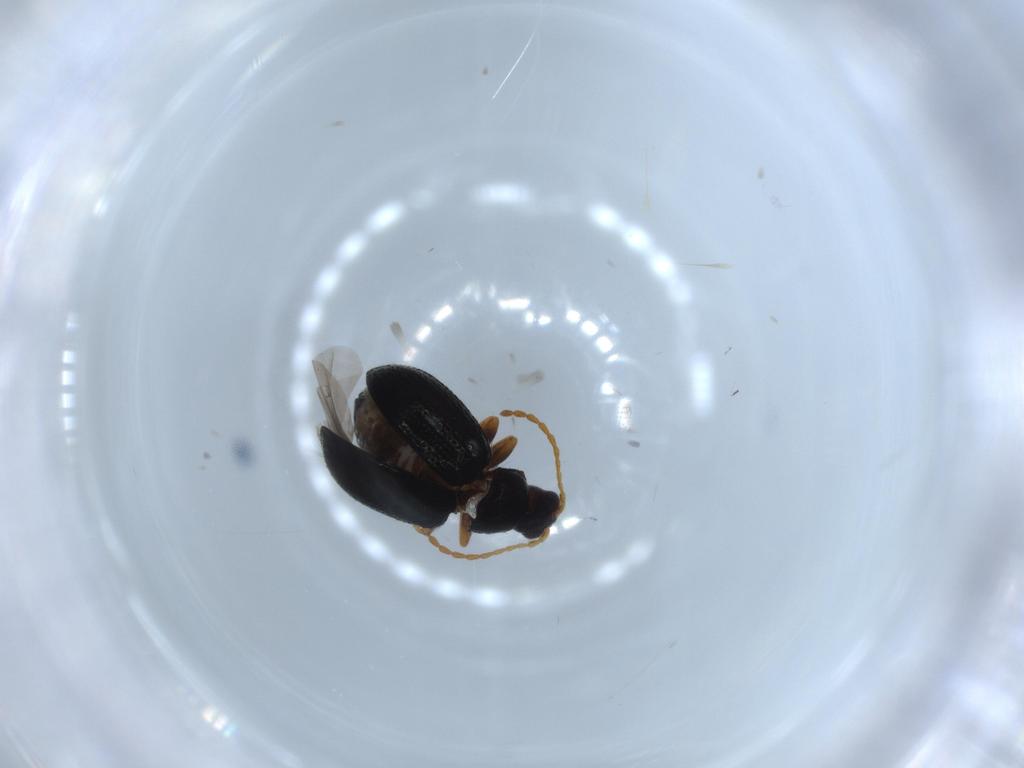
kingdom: Animalia
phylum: Arthropoda
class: Insecta
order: Coleoptera
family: Chrysomelidae
